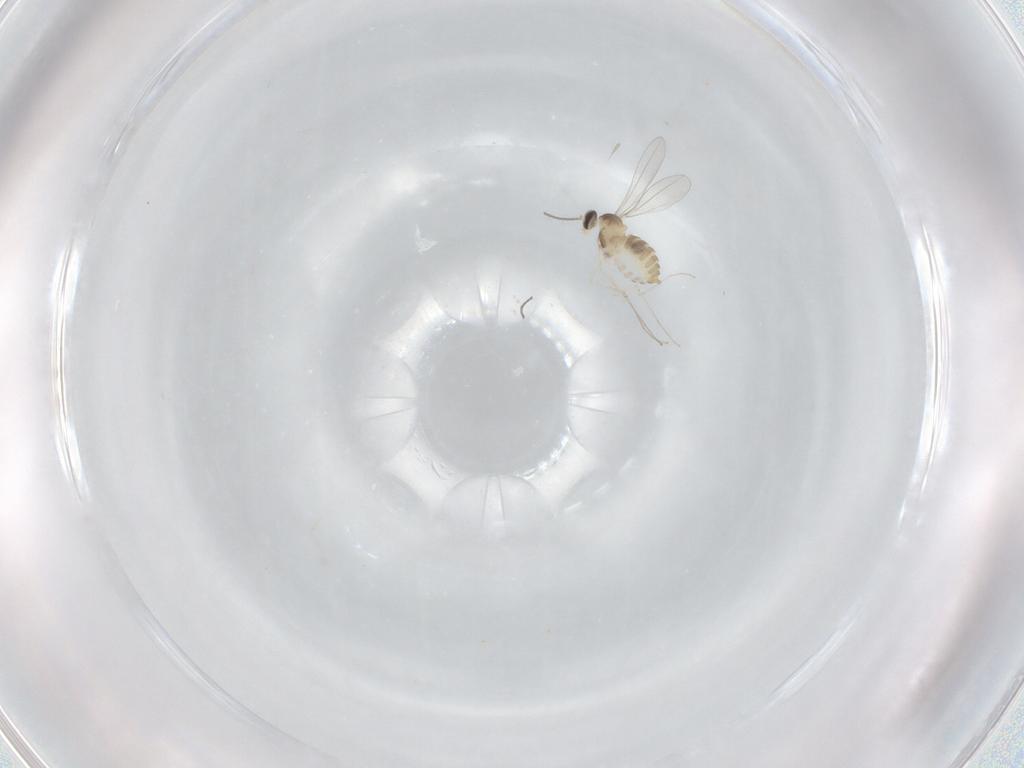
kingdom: Animalia
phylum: Arthropoda
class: Insecta
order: Diptera
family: Cecidomyiidae
